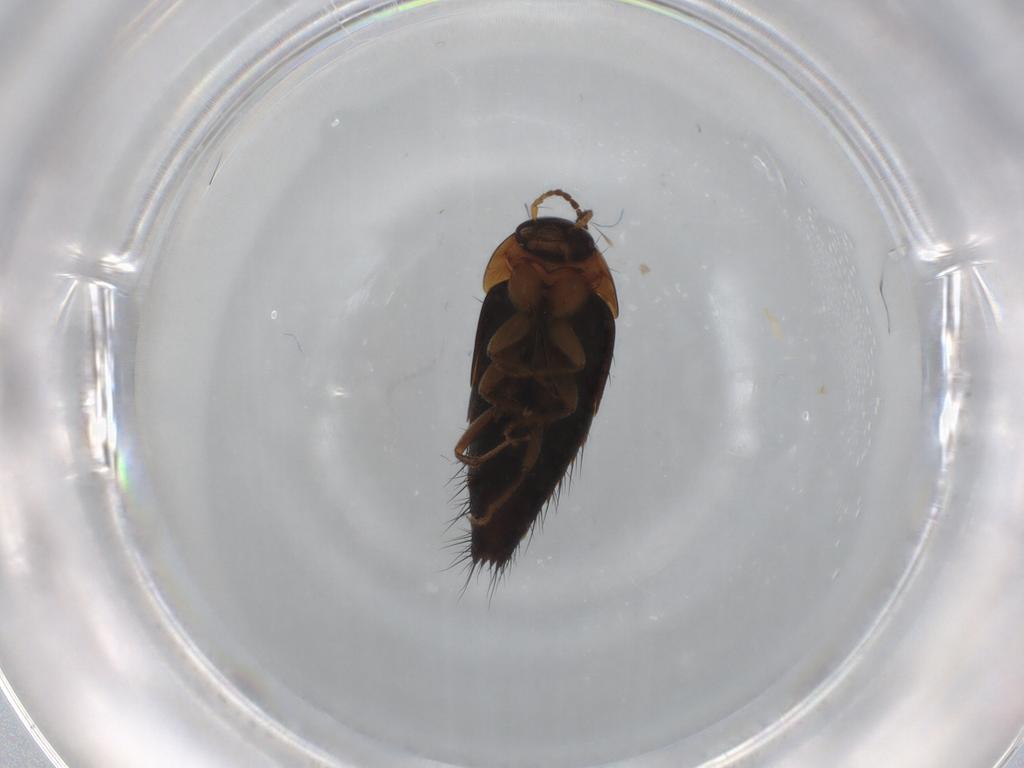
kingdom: Animalia
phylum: Arthropoda
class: Insecta
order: Coleoptera
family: Staphylinidae
